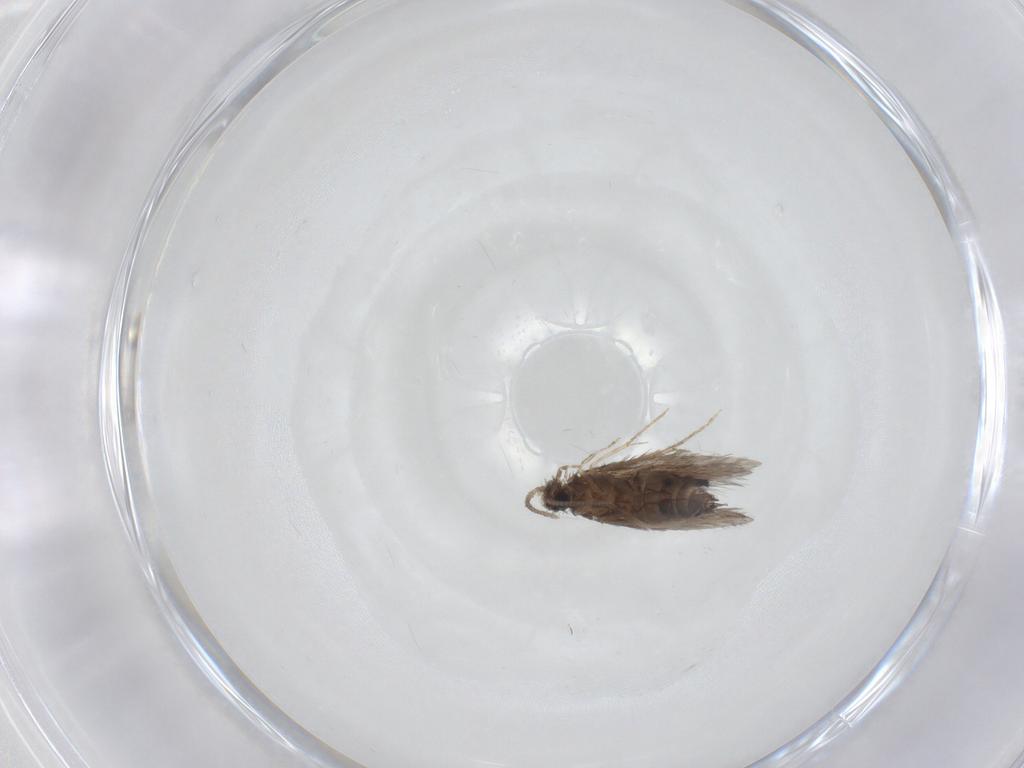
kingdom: Animalia
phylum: Arthropoda
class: Insecta
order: Trichoptera
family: Hydroptilidae
